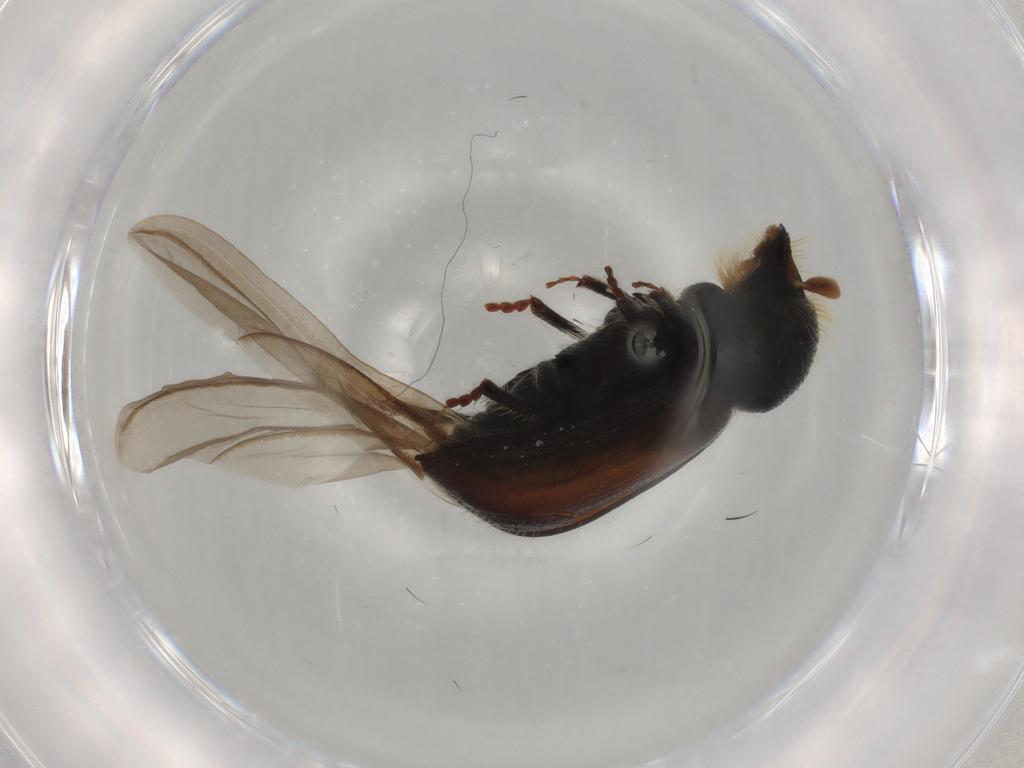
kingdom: Animalia
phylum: Arthropoda
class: Insecta
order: Coleoptera
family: Curculionidae
